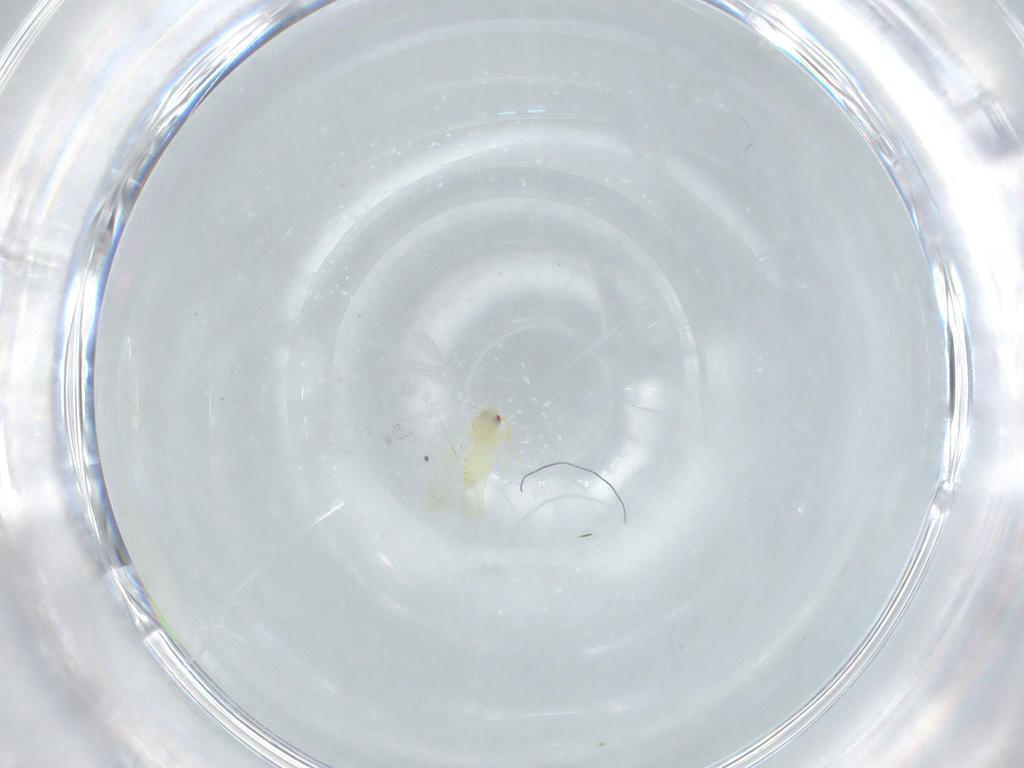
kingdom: Animalia
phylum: Arthropoda
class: Insecta
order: Hemiptera
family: Aleyrodidae
